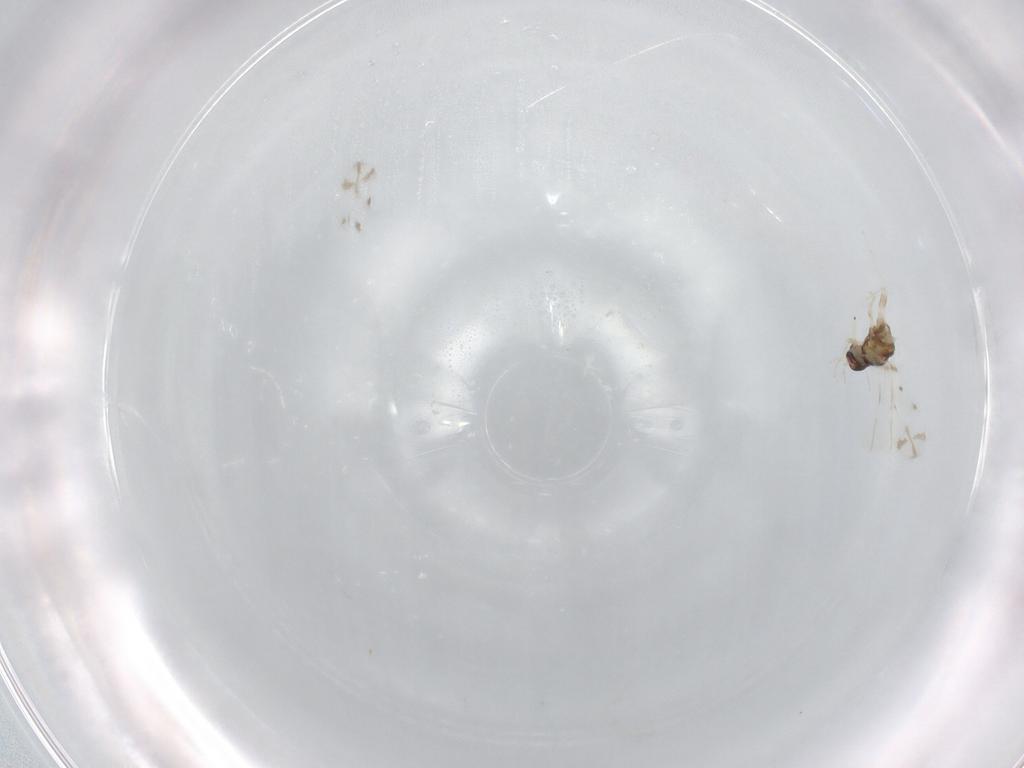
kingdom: Animalia
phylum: Arthropoda
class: Insecta
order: Hemiptera
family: Aleyrodidae
